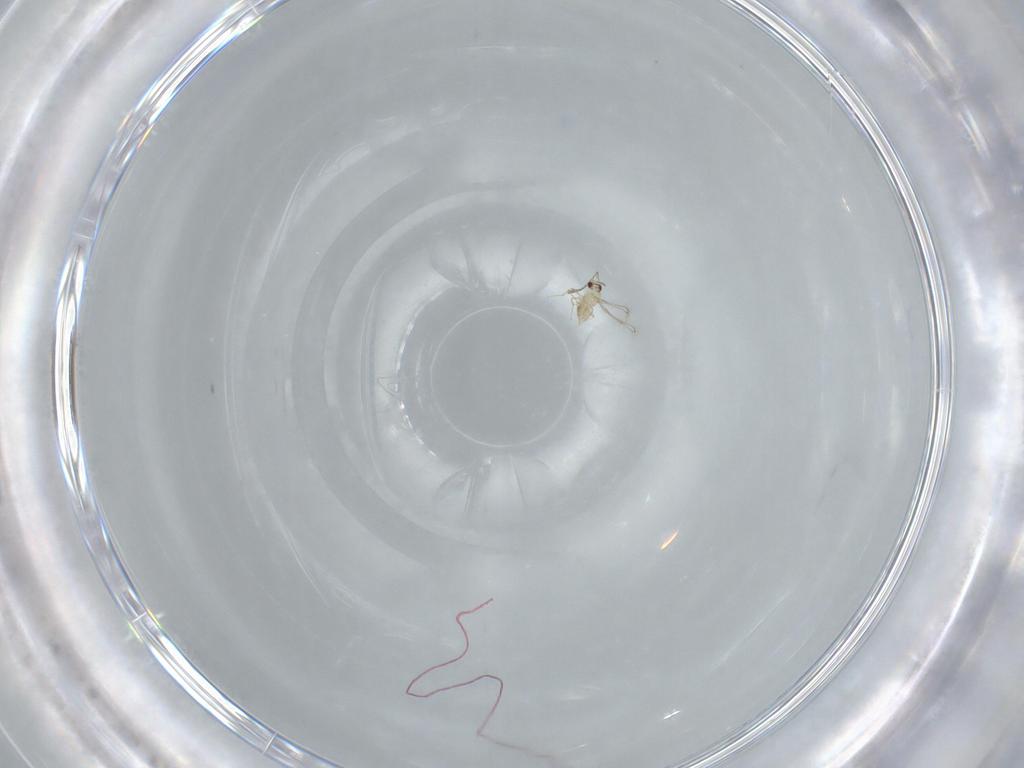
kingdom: Animalia
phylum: Arthropoda
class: Insecta
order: Hymenoptera
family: Mymaridae
